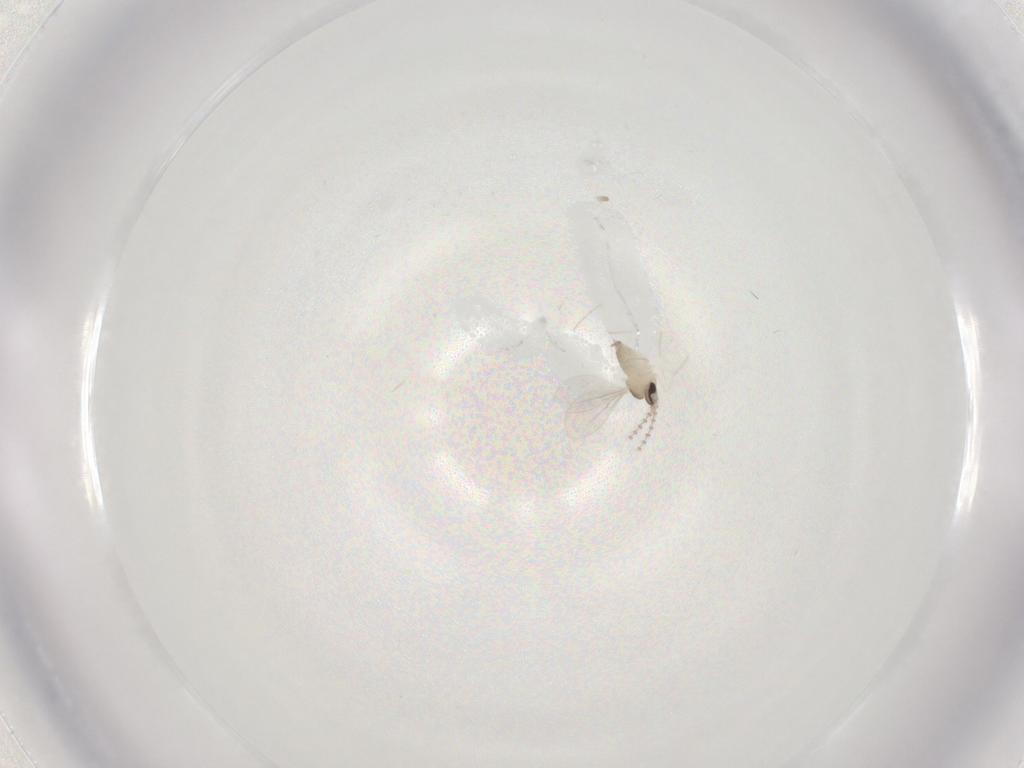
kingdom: Animalia
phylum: Arthropoda
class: Insecta
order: Diptera
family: Cecidomyiidae
